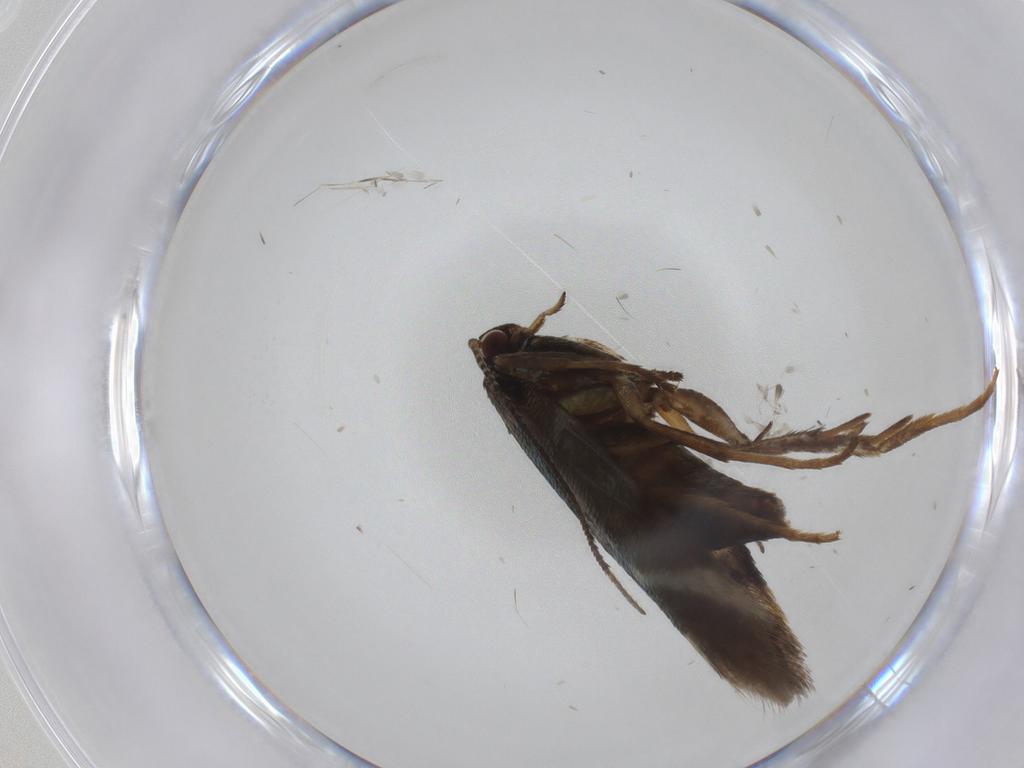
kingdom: Animalia
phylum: Arthropoda
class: Insecta
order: Lepidoptera
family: Argyresthiidae
